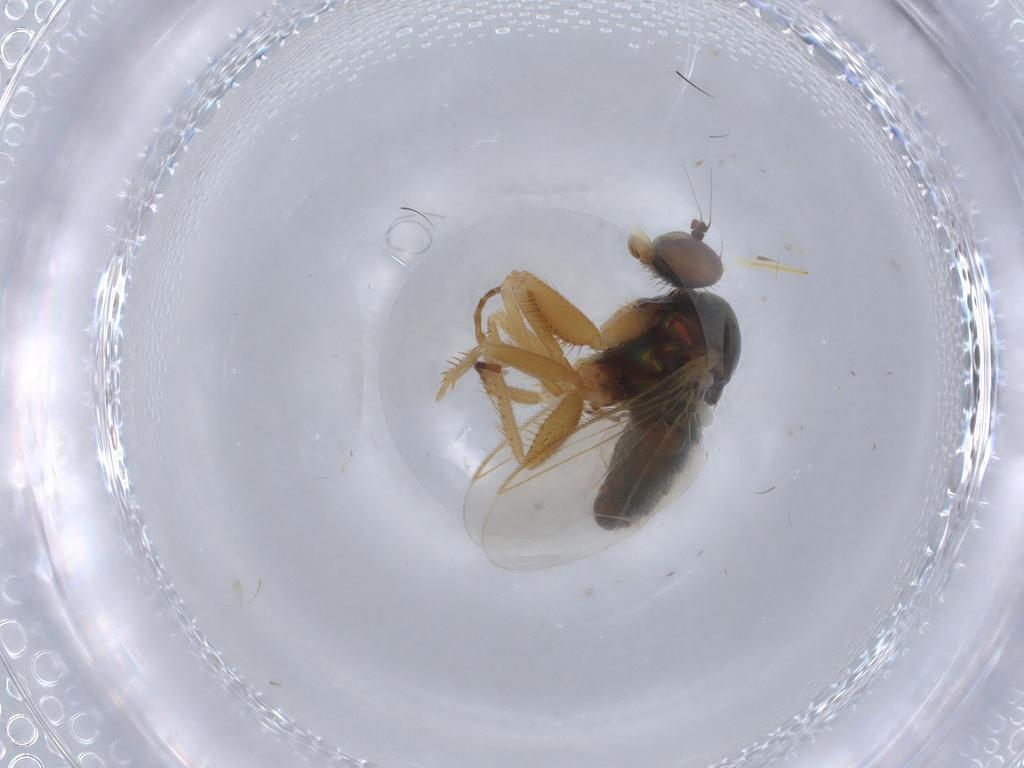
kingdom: Animalia
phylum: Arthropoda
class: Insecta
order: Diptera
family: Dolichopodidae
